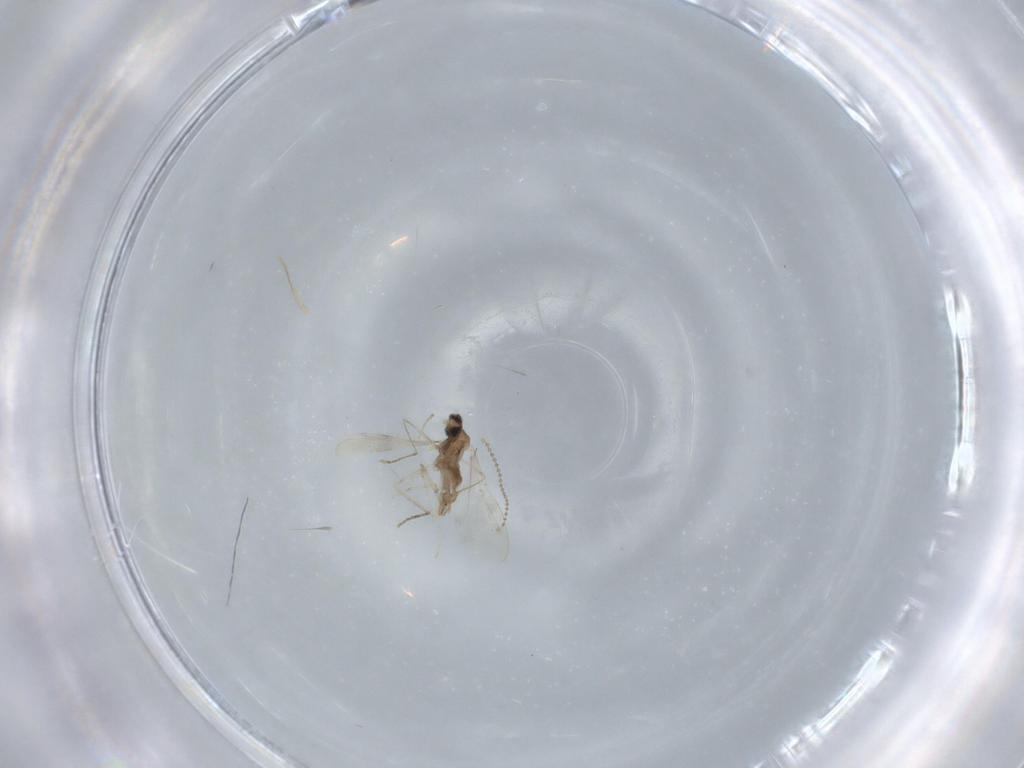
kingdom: Animalia
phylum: Arthropoda
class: Insecta
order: Diptera
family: Cecidomyiidae
